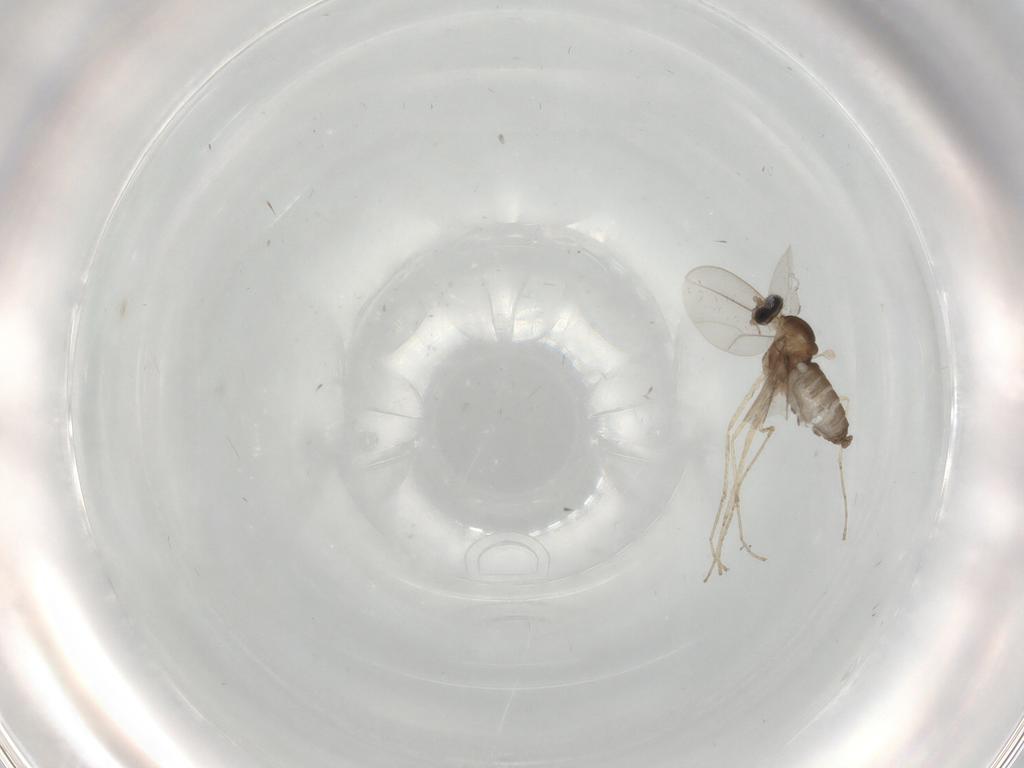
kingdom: Animalia
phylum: Arthropoda
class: Insecta
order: Diptera
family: Cecidomyiidae
